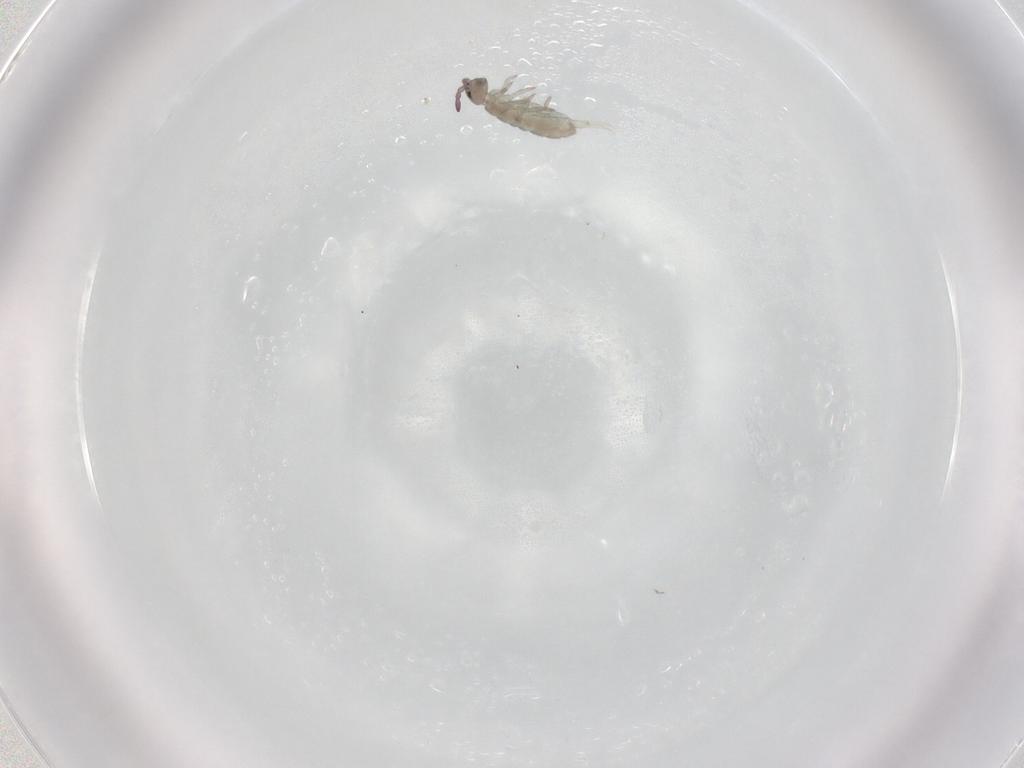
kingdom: Animalia
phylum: Arthropoda
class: Collembola
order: Entomobryomorpha
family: Isotomidae
